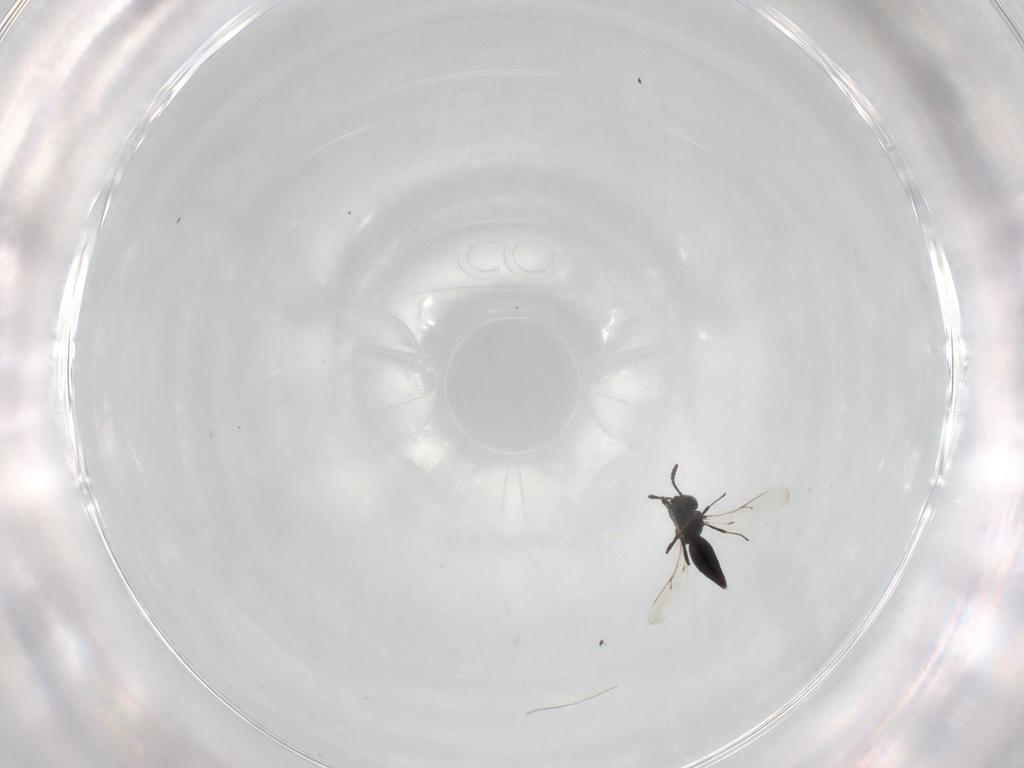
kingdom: Animalia
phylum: Arthropoda
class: Insecta
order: Hymenoptera
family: Scelionidae
